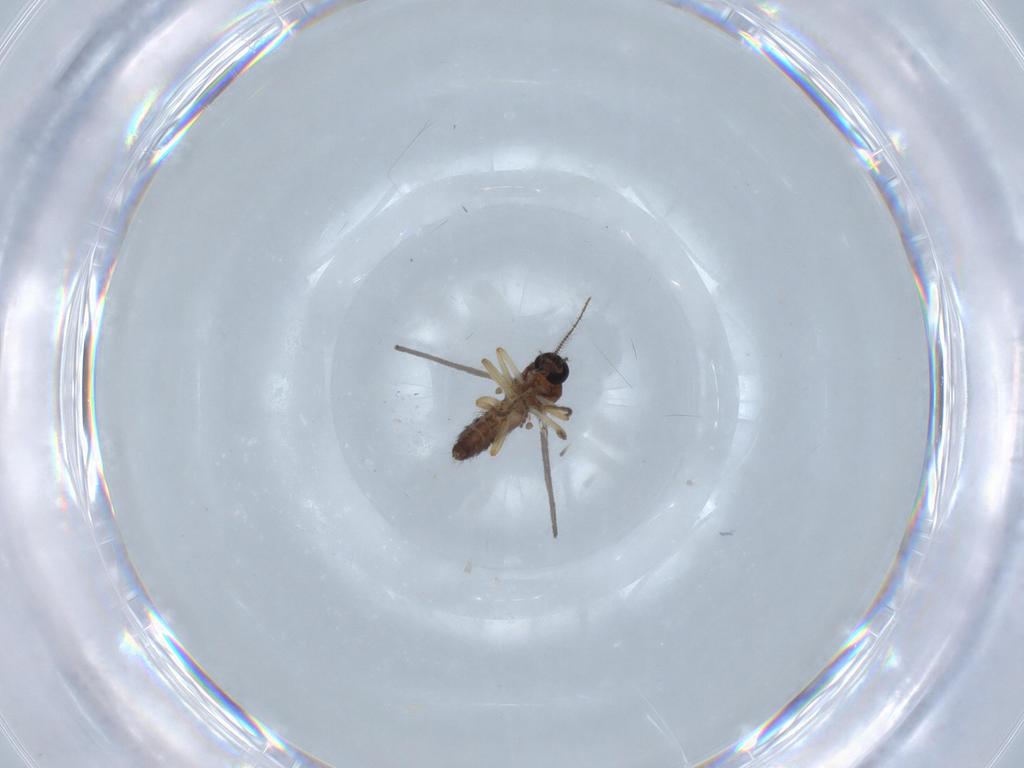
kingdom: Animalia
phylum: Arthropoda
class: Insecta
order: Diptera
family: Ceratopogonidae
